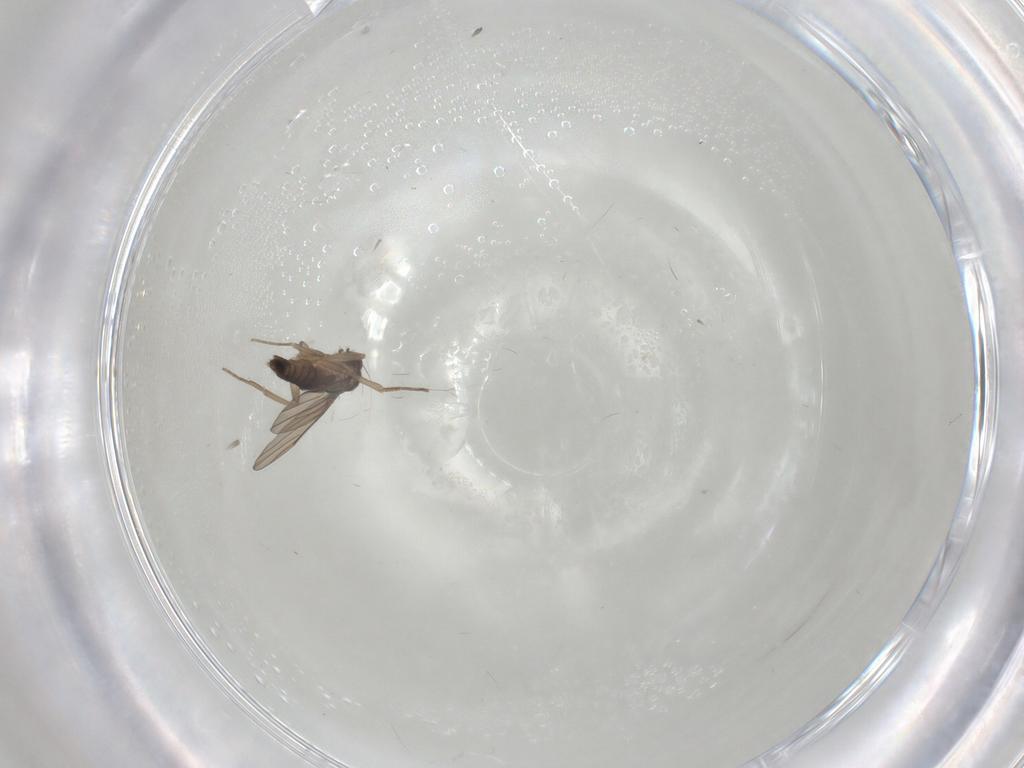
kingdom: Animalia
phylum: Arthropoda
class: Insecta
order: Diptera
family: Phoridae
